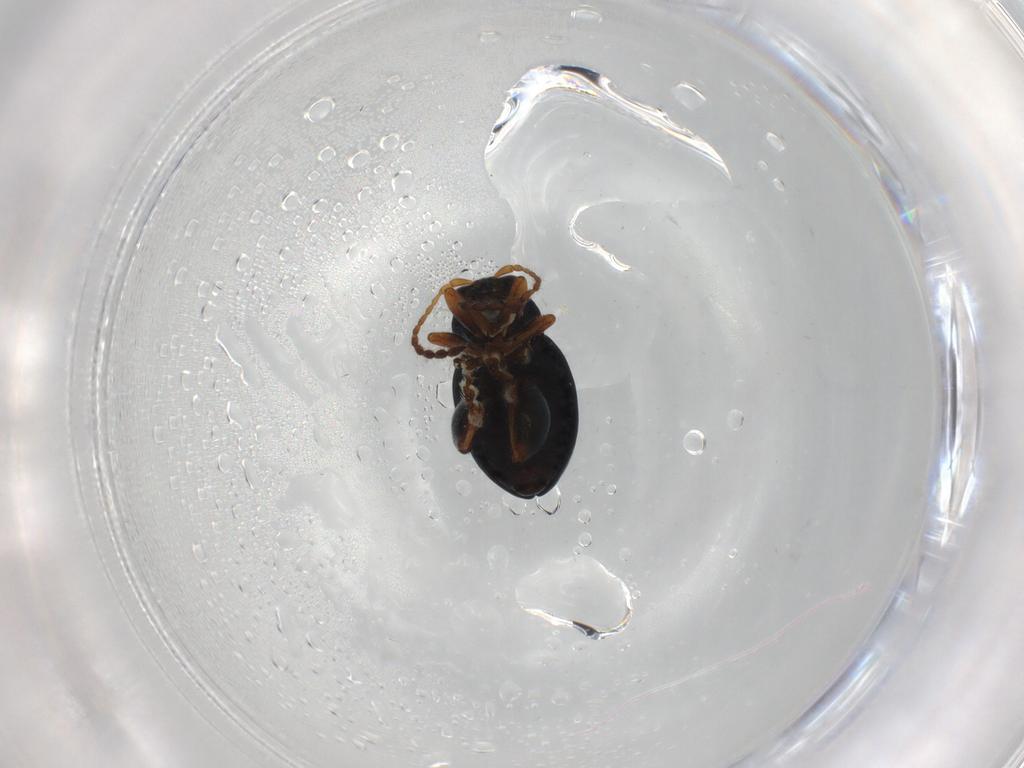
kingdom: Animalia
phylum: Arthropoda
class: Insecta
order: Coleoptera
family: Chrysomelidae
